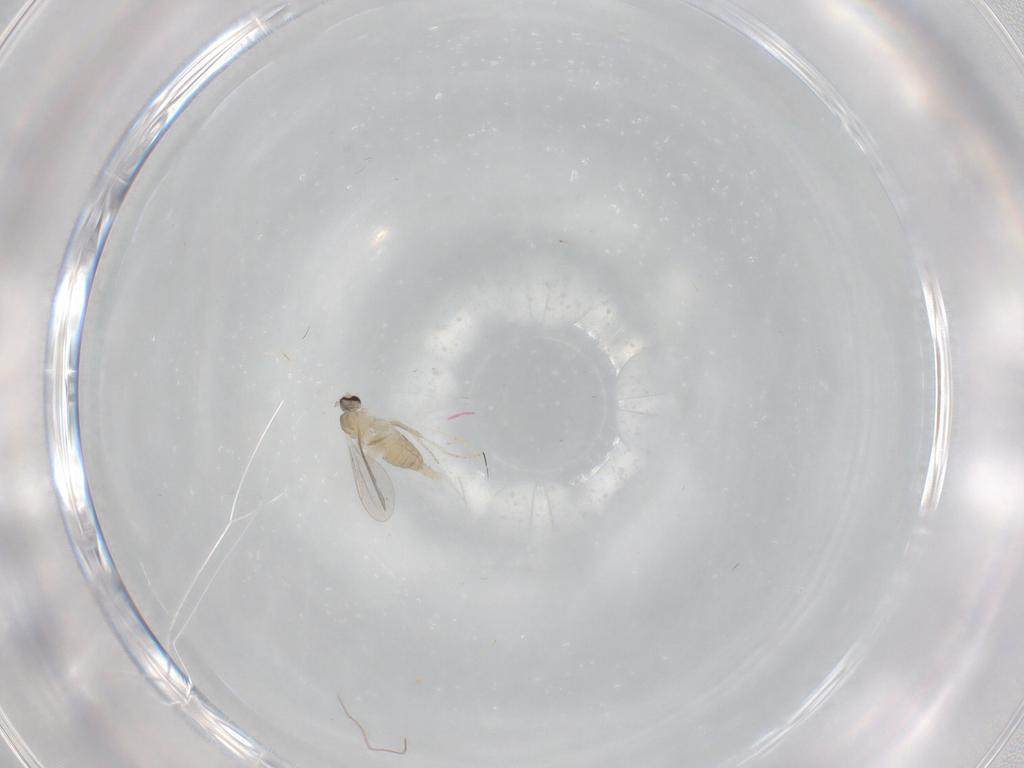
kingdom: Animalia
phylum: Arthropoda
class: Insecta
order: Diptera
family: Cecidomyiidae
